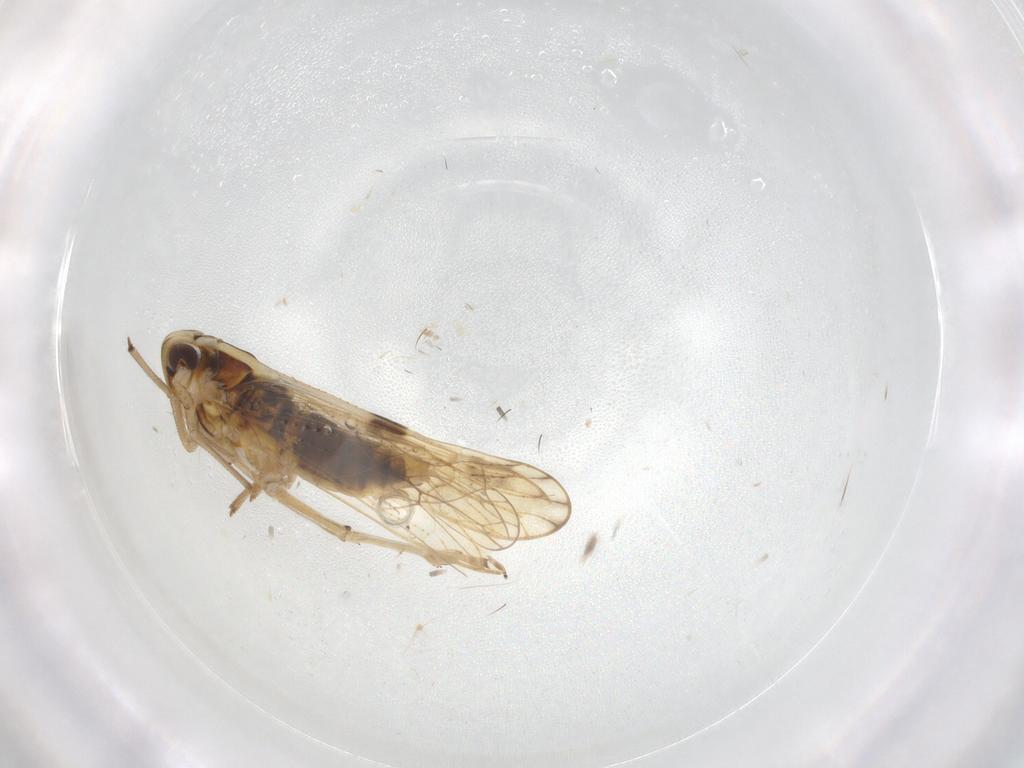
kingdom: Animalia
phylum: Arthropoda
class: Insecta
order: Hemiptera
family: Delphacidae
